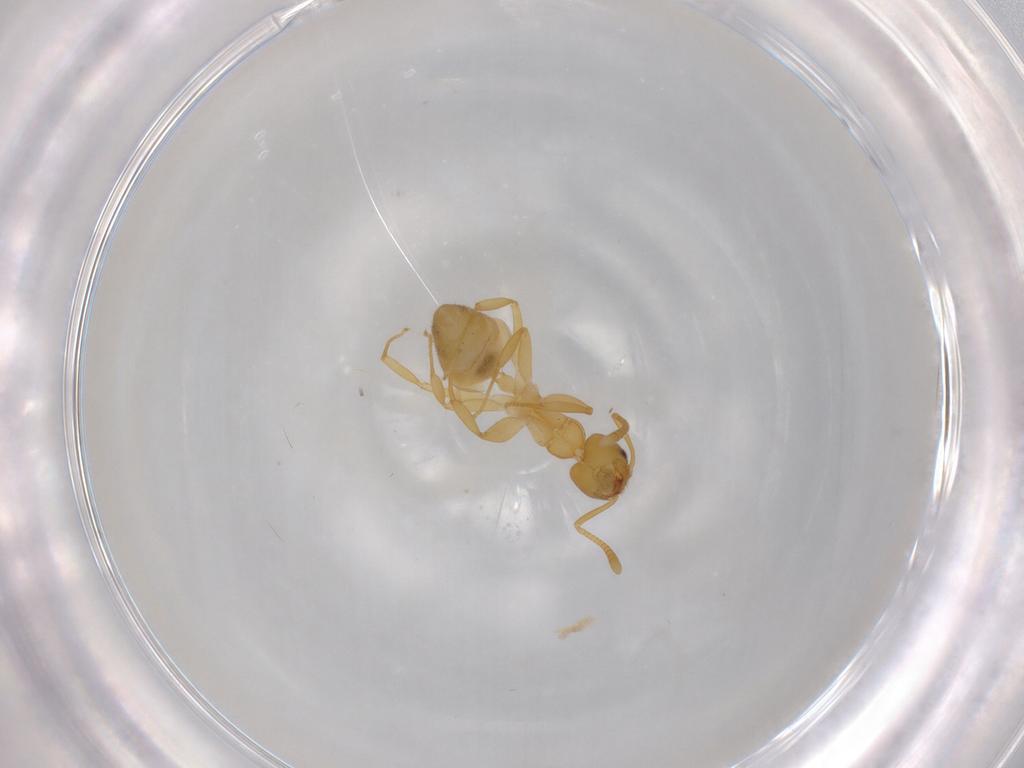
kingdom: Animalia
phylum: Arthropoda
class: Insecta
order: Hymenoptera
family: Formicidae
